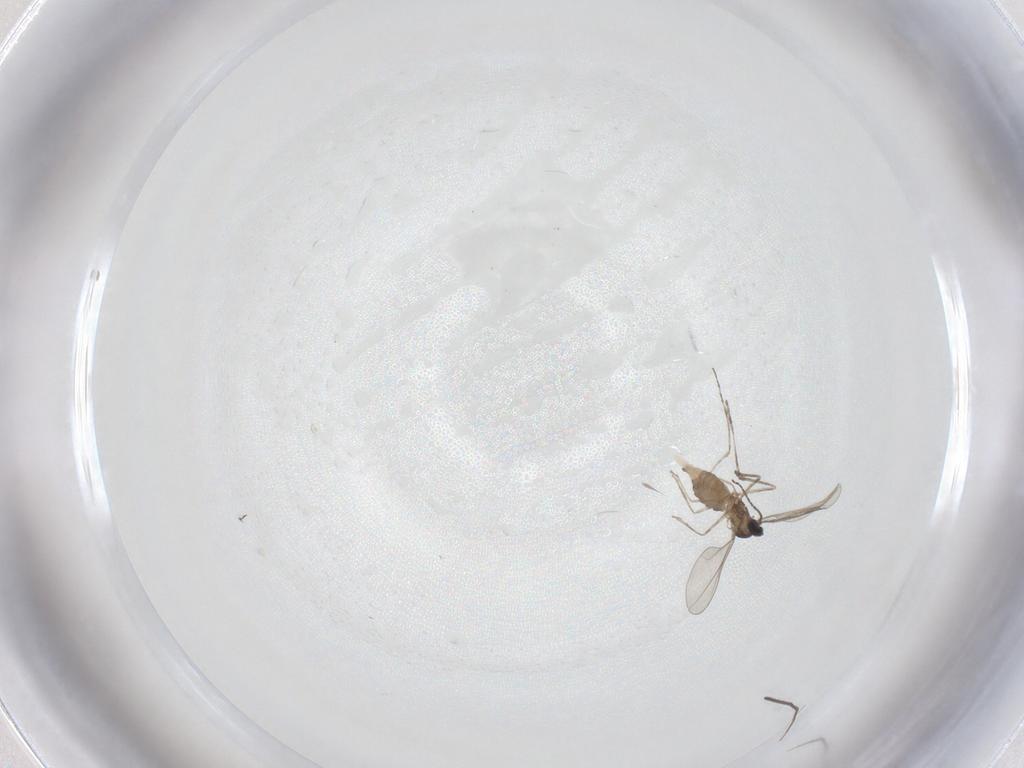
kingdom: Animalia
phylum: Arthropoda
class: Insecta
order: Diptera
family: Cecidomyiidae
